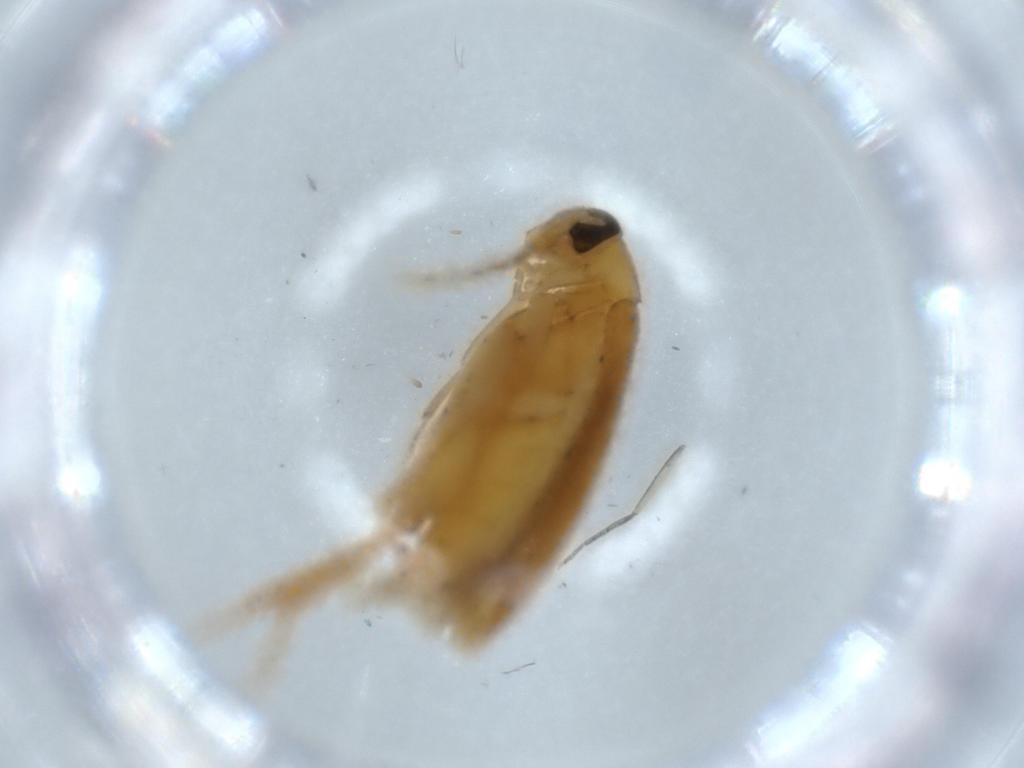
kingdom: Animalia
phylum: Arthropoda
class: Insecta
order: Coleoptera
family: Scraptiidae
